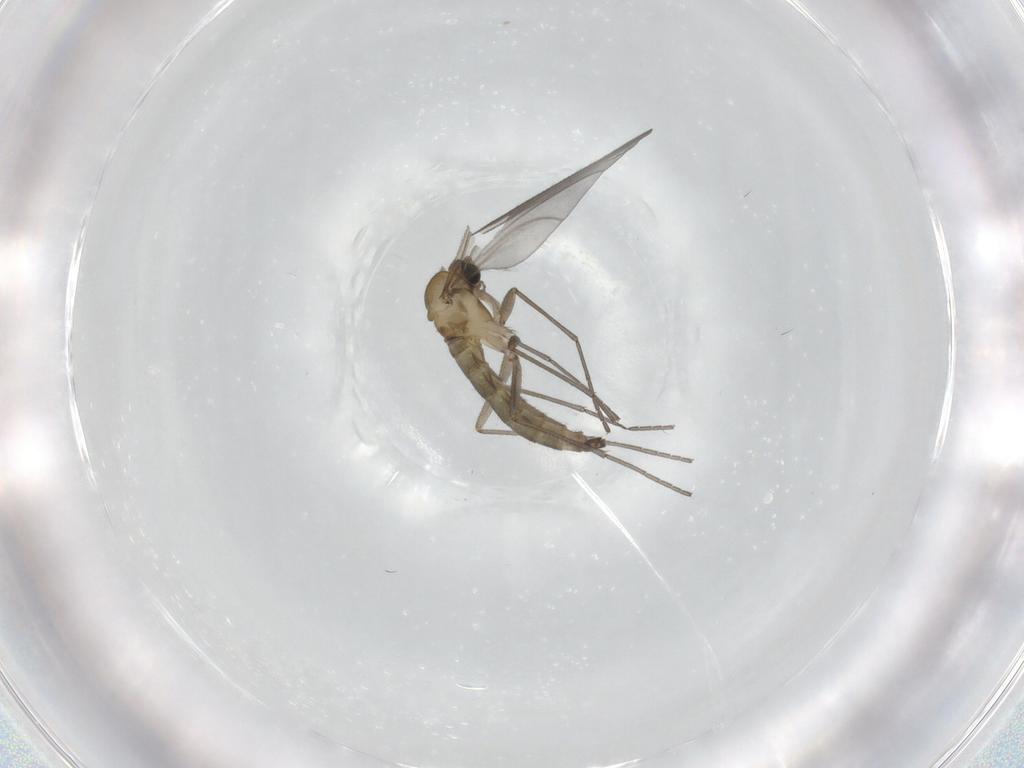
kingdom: Animalia
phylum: Arthropoda
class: Insecta
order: Diptera
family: Sciaridae
